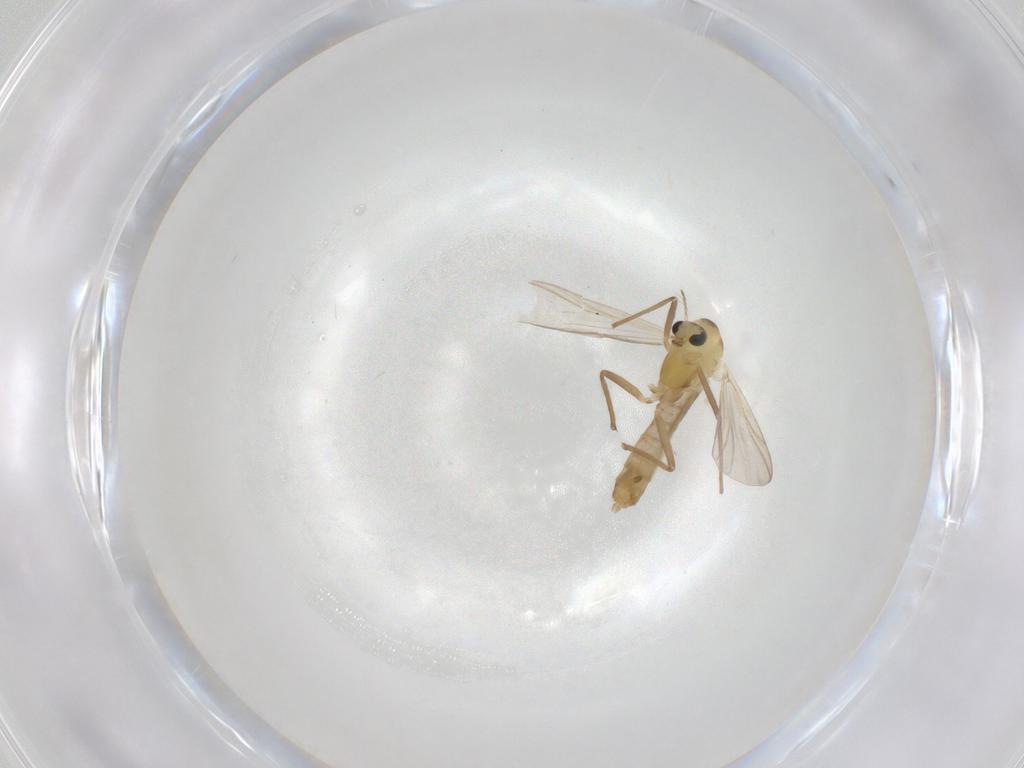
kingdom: Animalia
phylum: Arthropoda
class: Insecta
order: Diptera
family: Chironomidae
